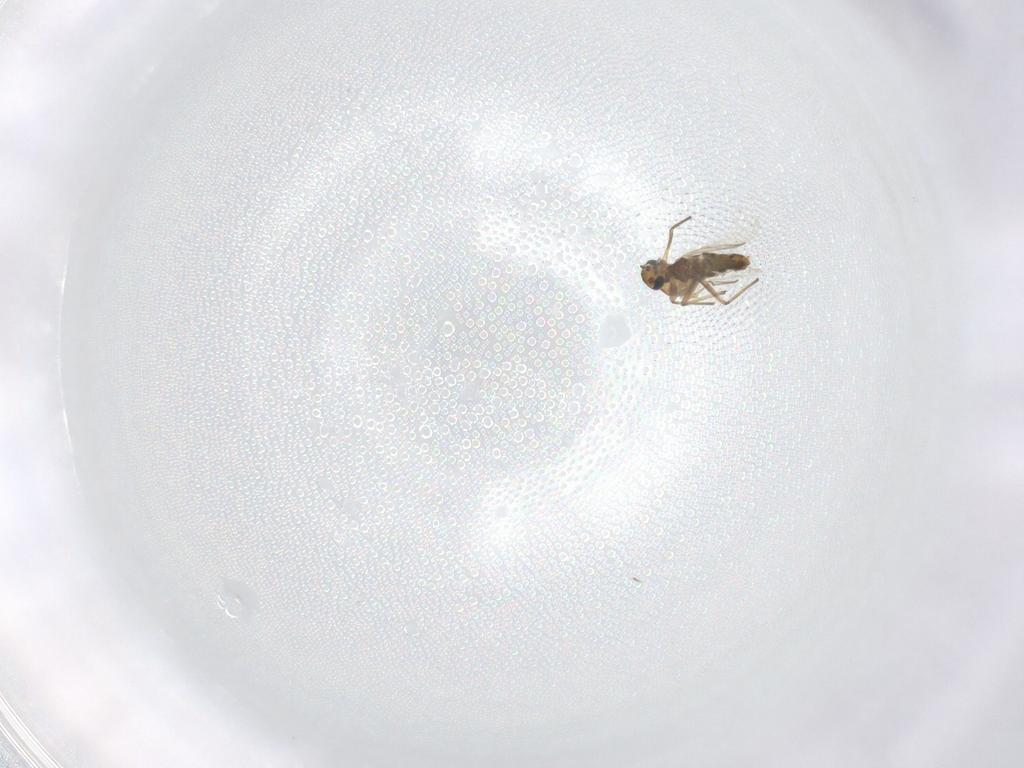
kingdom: Animalia
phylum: Arthropoda
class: Insecta
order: Diptera
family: Chironomidae
